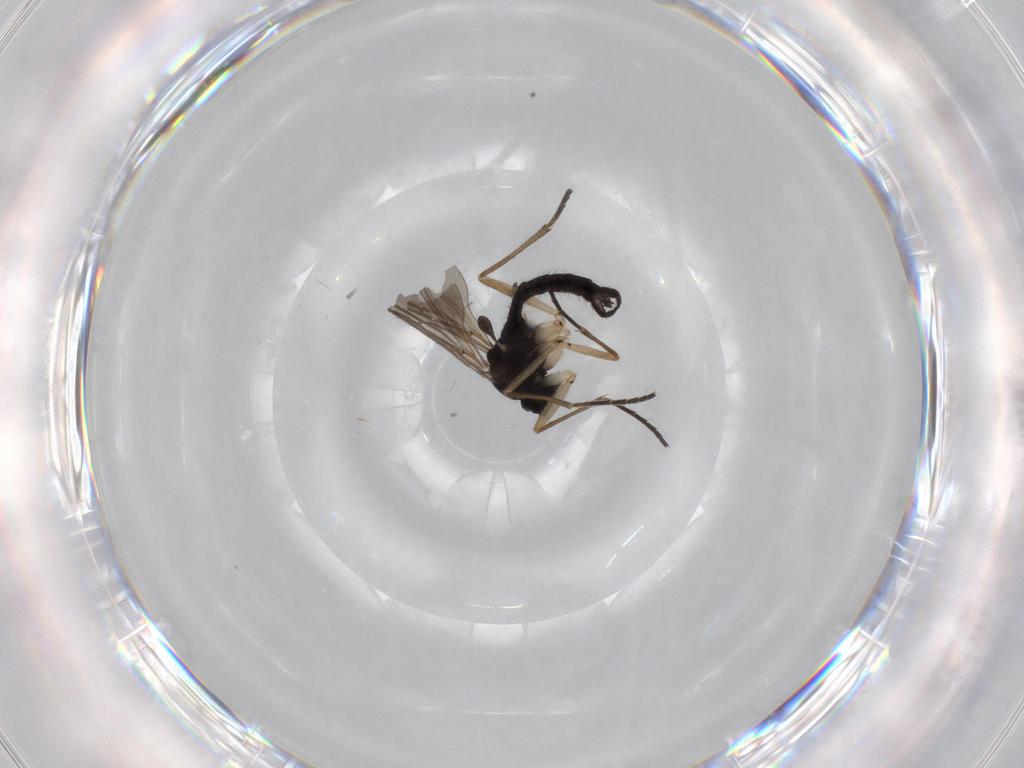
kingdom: Animalia
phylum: Arthropoda
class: Insecta
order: Diptera
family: Sciaridae
